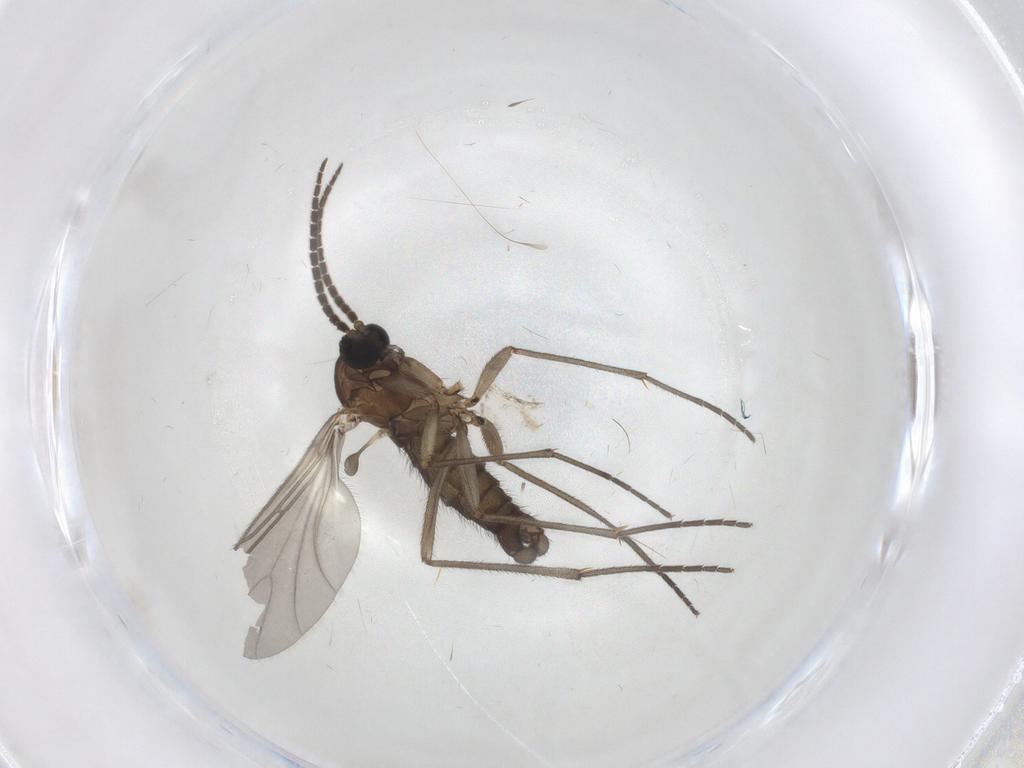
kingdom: Animalia
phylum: Arthropoda
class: Insecta
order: Diptera
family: Sciaridae
